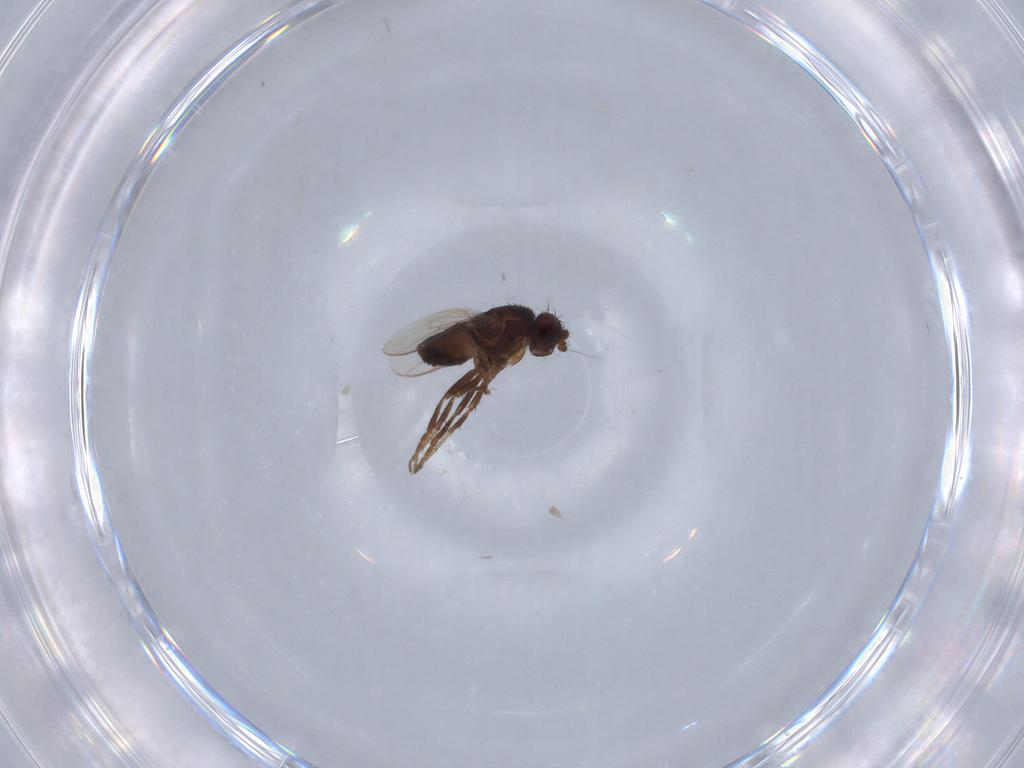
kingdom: Animalia
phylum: Arthropoda
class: Insecta
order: Diptera
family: Sphaeroceridae
